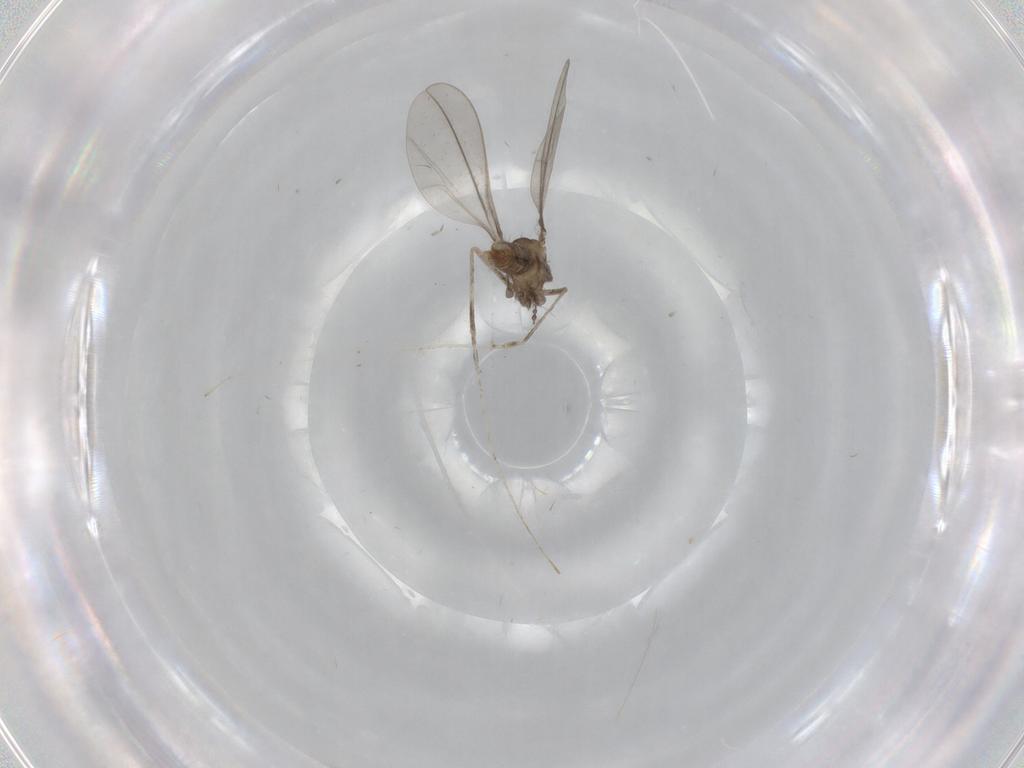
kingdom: Animalia
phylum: Arthropoda
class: Insecta
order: Diptera
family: Cecidomyiidae
